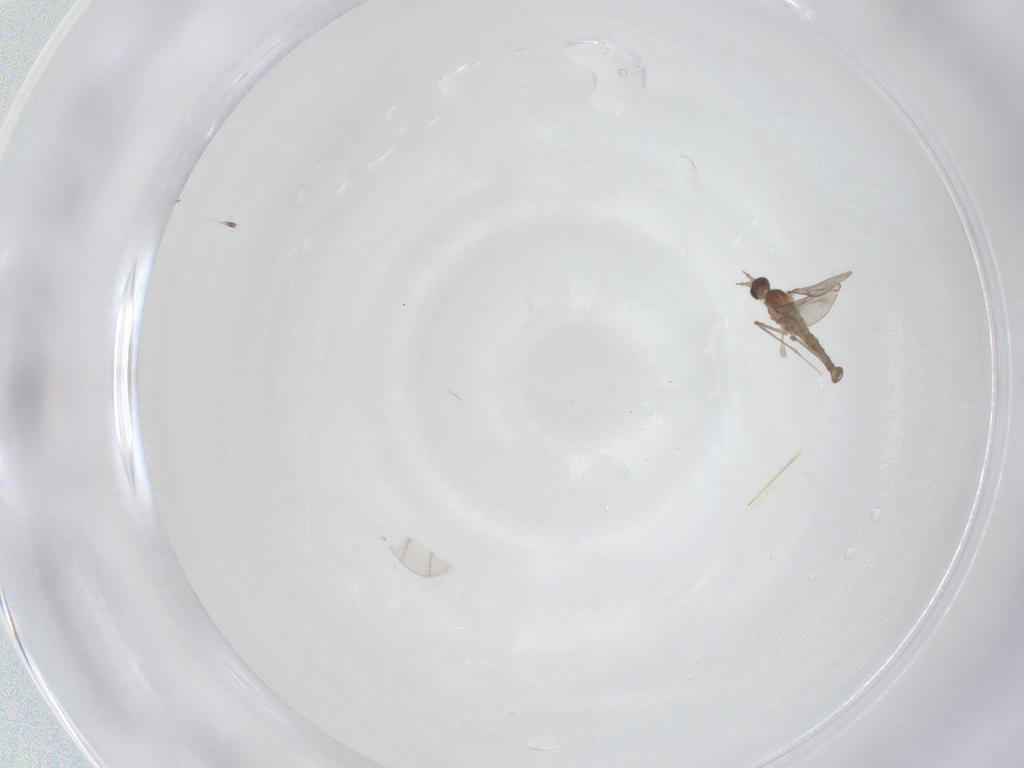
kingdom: Animalia
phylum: Arthropoda
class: Insecta
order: Diptera
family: Cecidomyiidae
